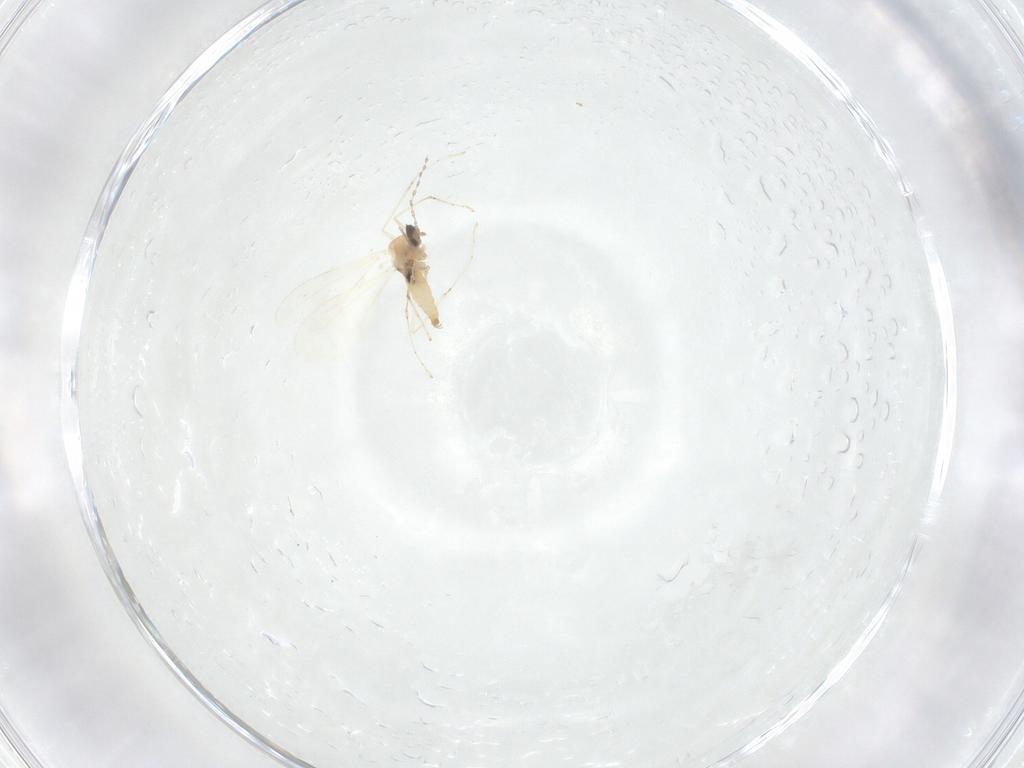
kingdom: Animalia
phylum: Arthropoda
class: Insecta
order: Diptera
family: Cecidomyiidae
